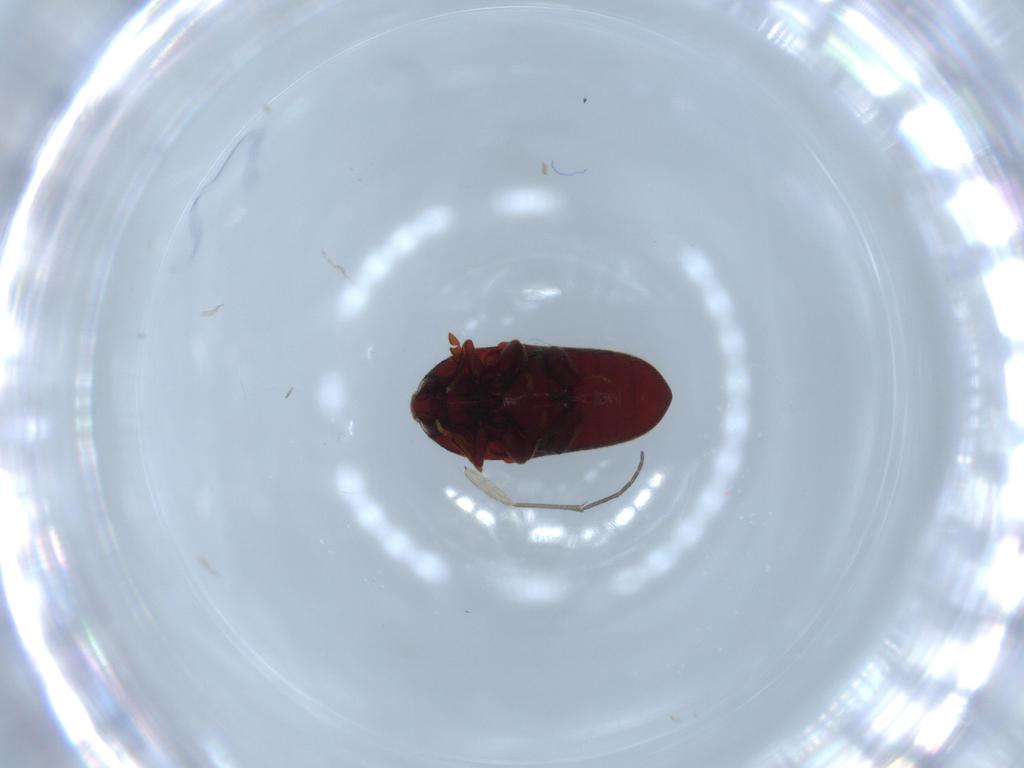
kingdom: Animalia
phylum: Arthropoda
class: Insecta
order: Coleoptera
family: Throscidae
